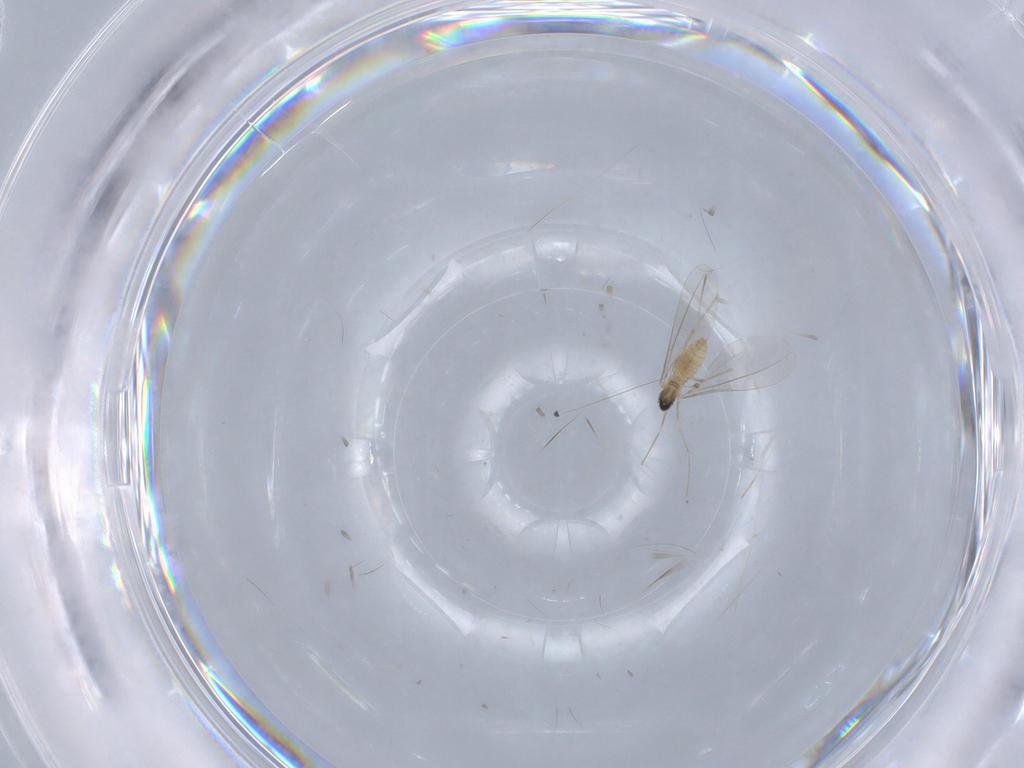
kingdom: Animalia
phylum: Arthropoda
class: Insecta
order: Diptera
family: Cecidomyiidae
